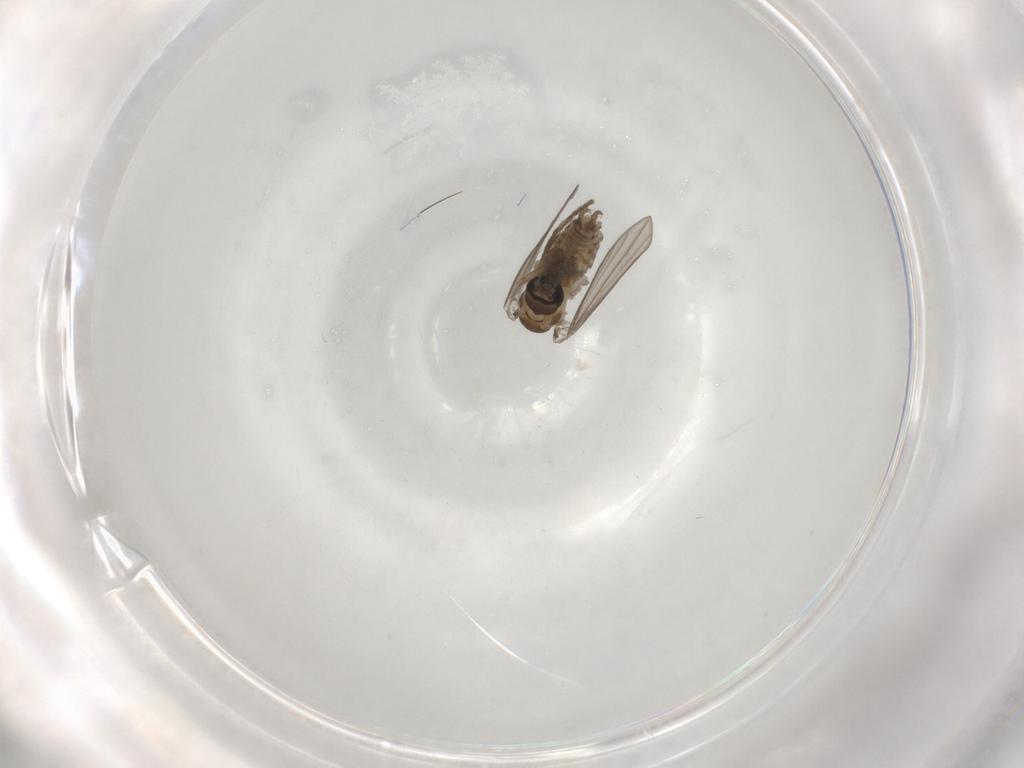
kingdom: Animalia
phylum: Arthropoda
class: Insecta
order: Diptera
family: Psychodidae
